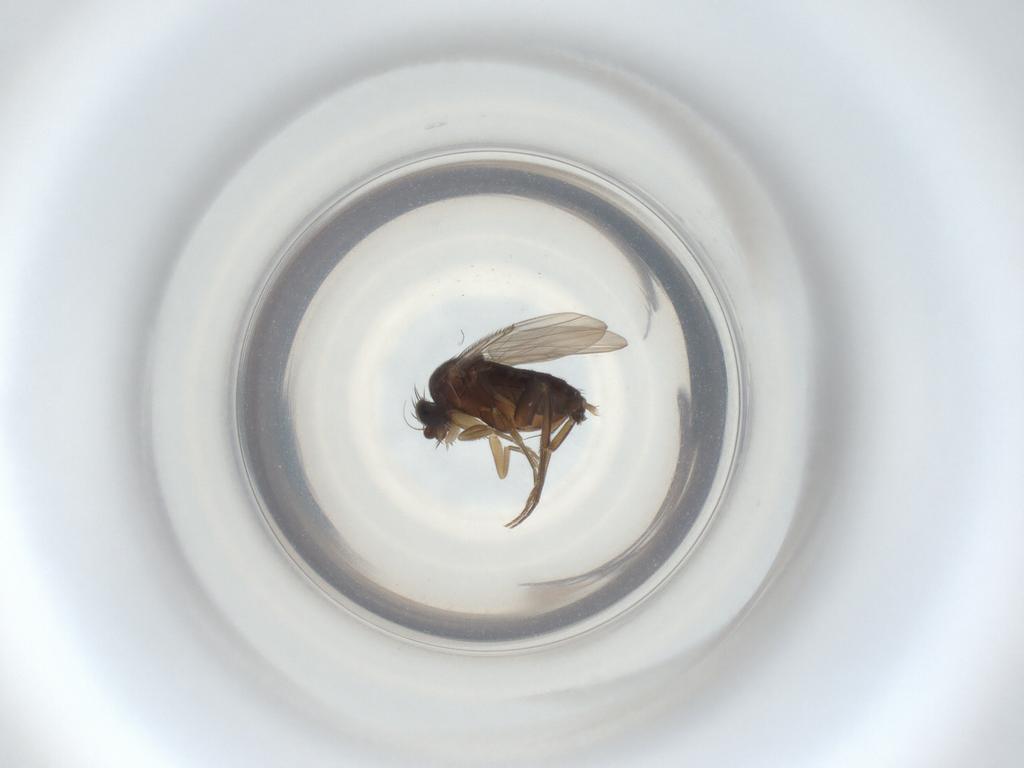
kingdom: Animalia
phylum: Arthropoda
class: Insecta
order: Diptera
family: Phoridae
